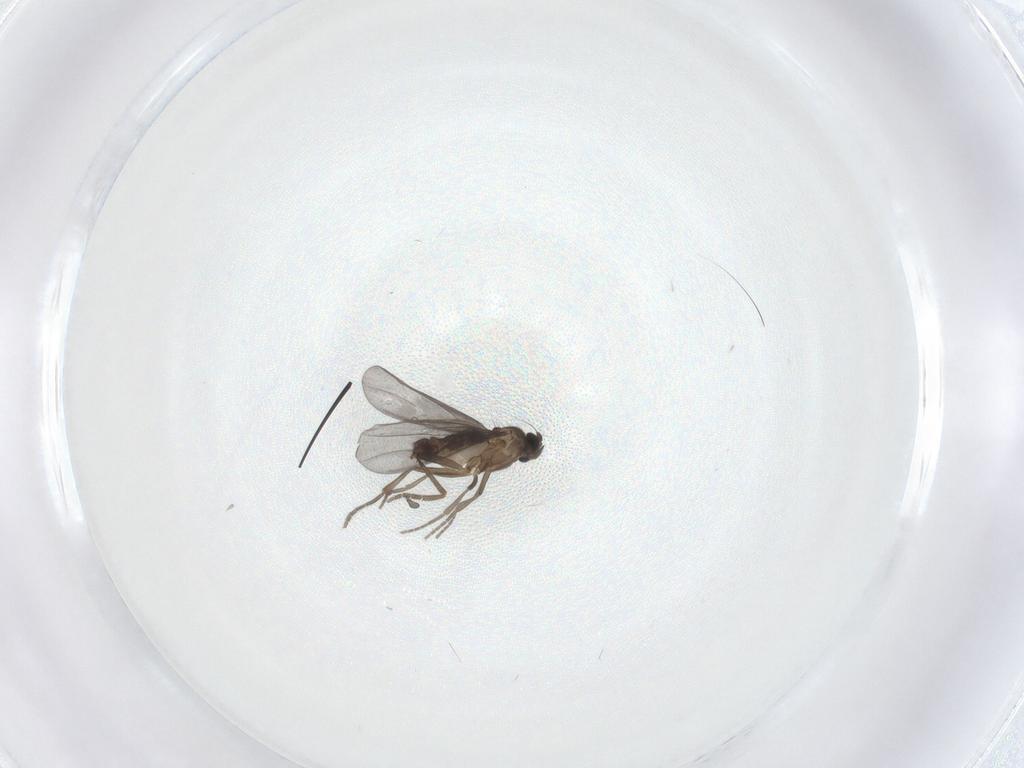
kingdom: Animalia
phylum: Arthropoda
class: Insecta
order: Diptera
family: Phoridae
